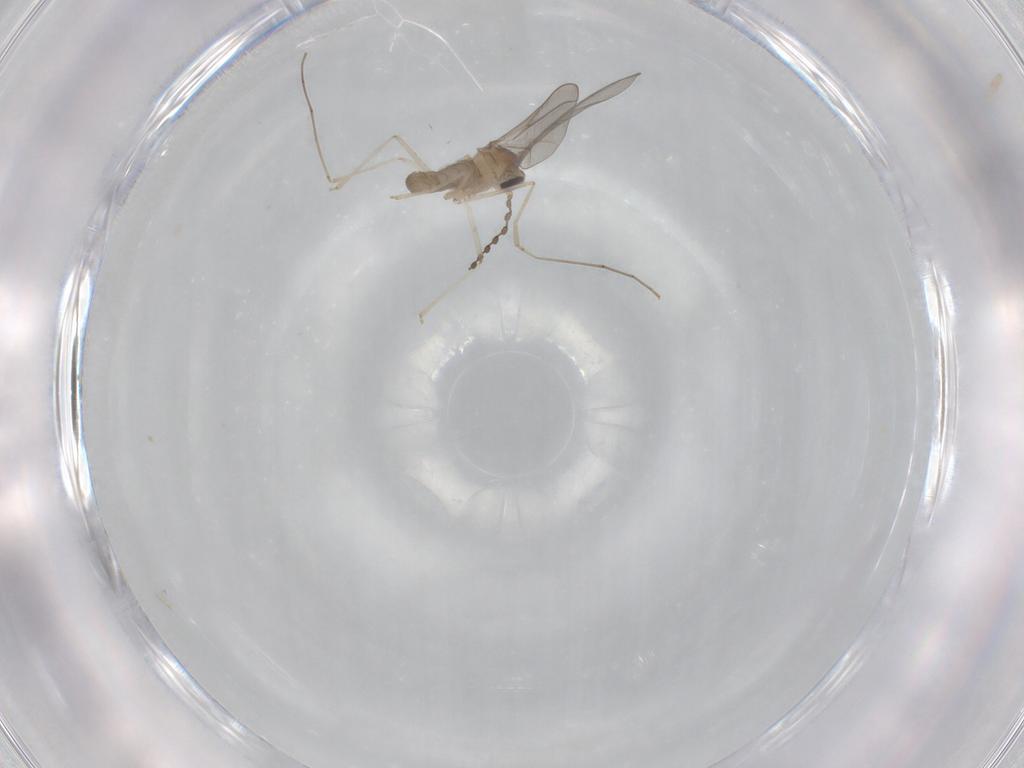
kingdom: Animalia
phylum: Arthropoda
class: Insecta
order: Diptera
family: Cecidomyiidae
